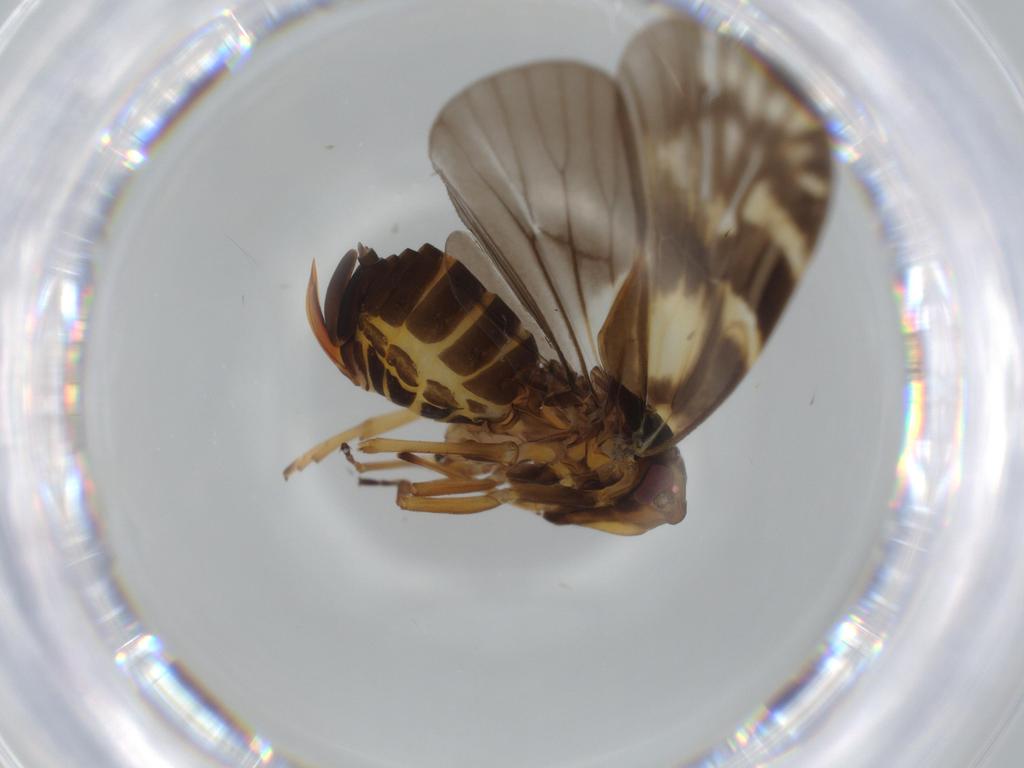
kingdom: Animalia
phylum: Arthropoda
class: Insecta
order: Hemiptera
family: Cixiidae
